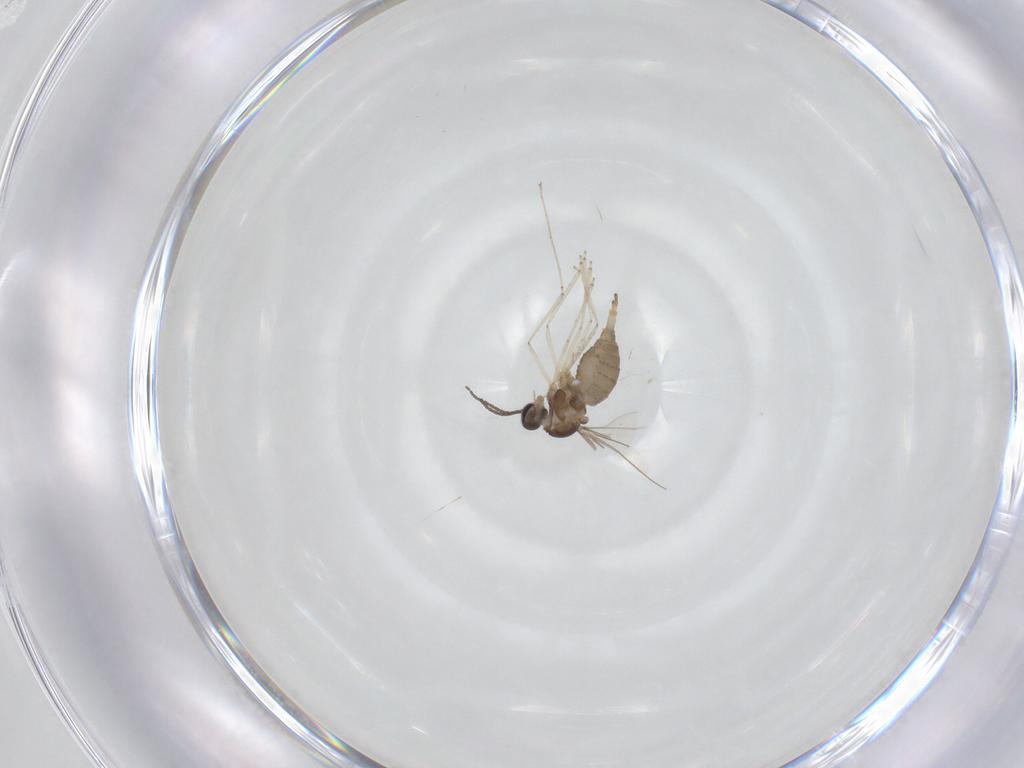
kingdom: Animalia
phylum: Arthropoda
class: Insecta
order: Diptera
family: Cecidomyiidae
